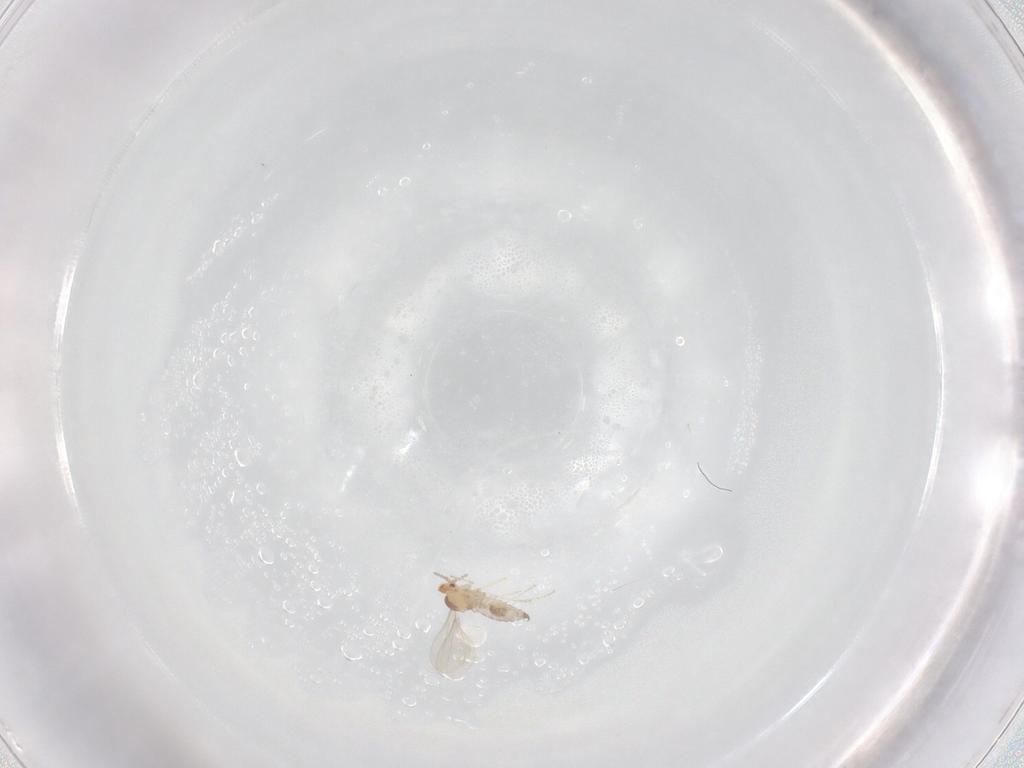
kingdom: Animalia
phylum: Arthropoda
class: Insecta
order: Diptera
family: Cecidomyiidae
